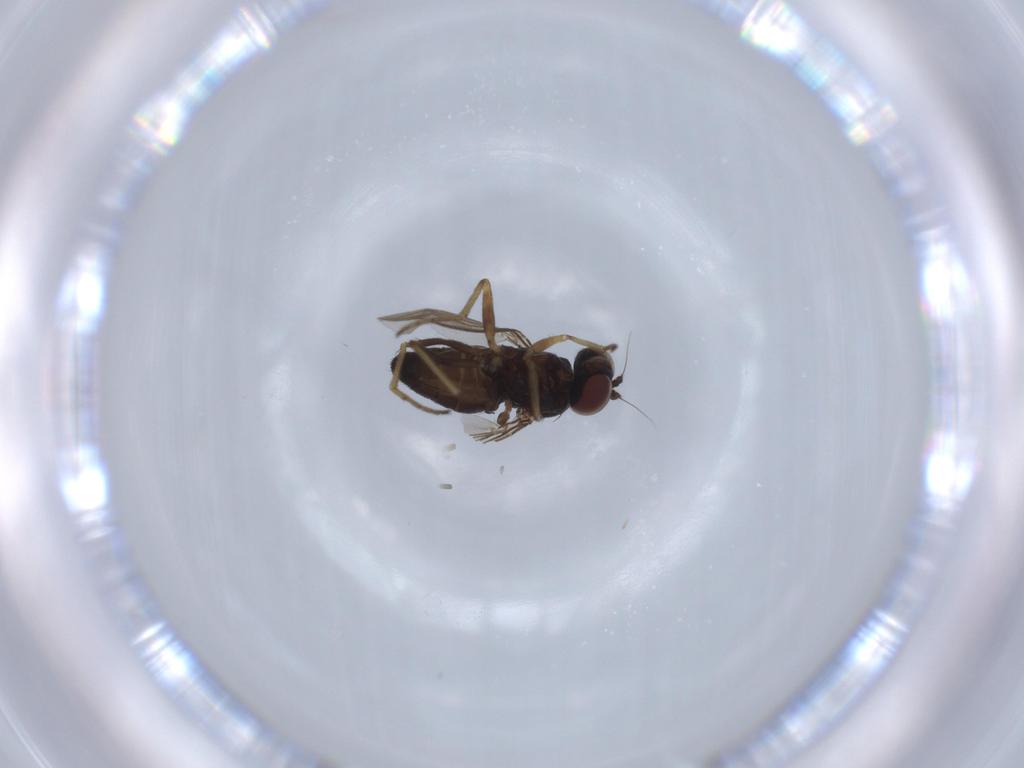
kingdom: Animalia
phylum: Arthropoda
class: Insecta
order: Diptera
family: Dolichopodidae
